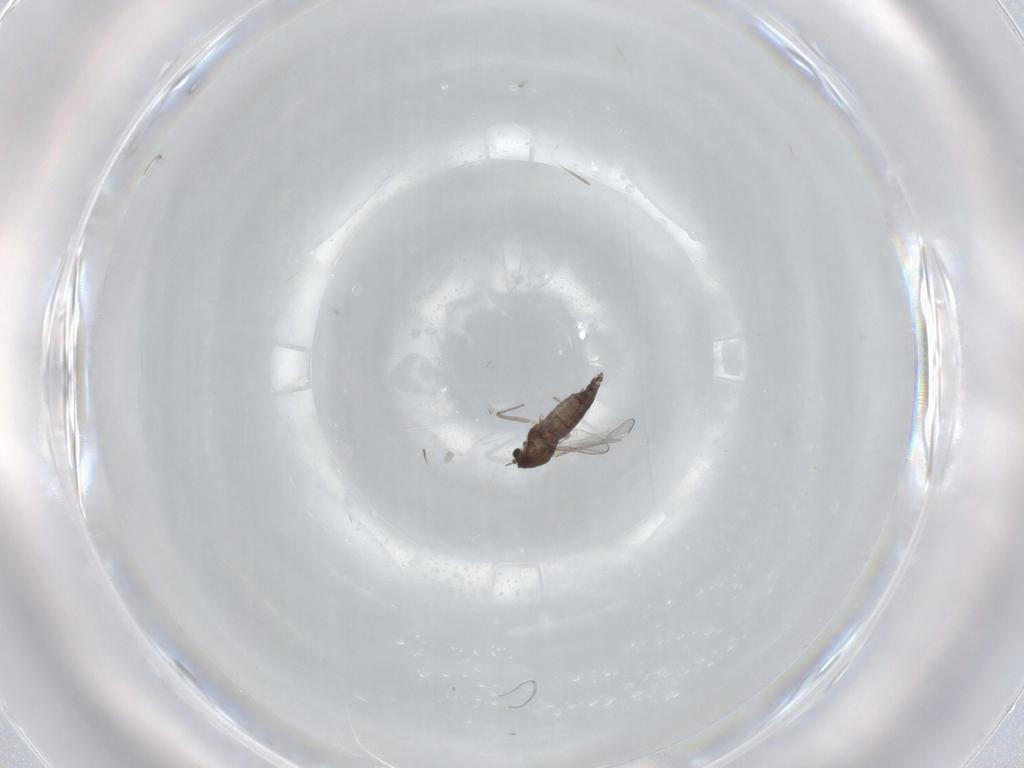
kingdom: Animalia
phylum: Arthropoda
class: Insecta
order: Diptera
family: Chironomidae
